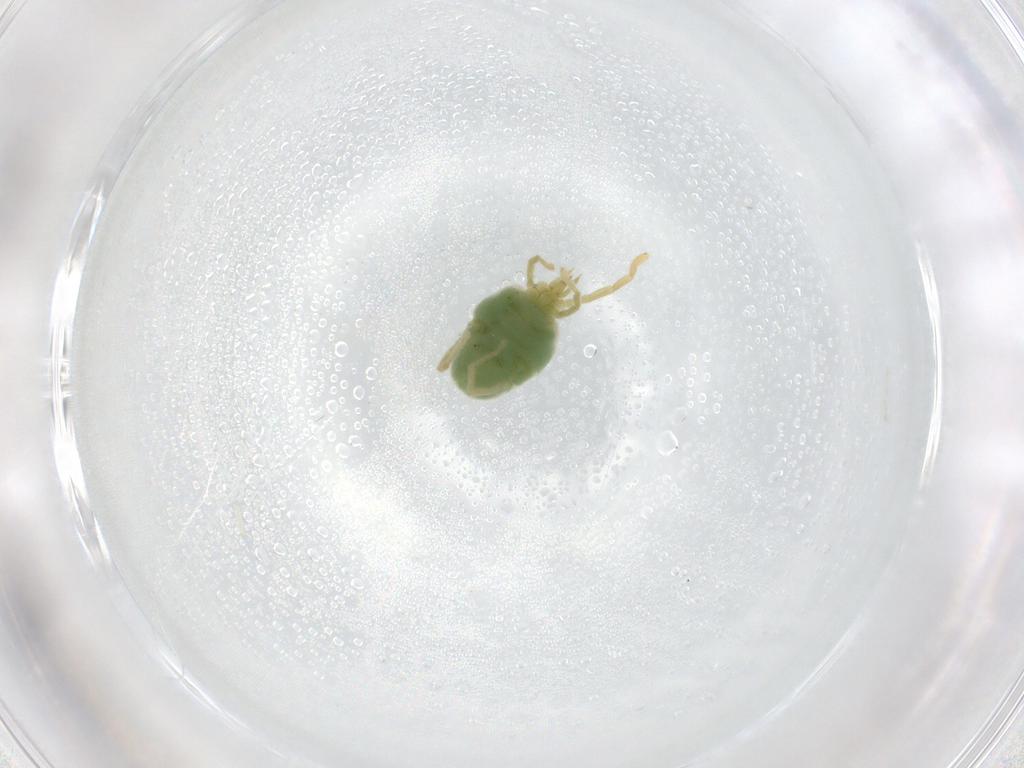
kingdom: Animalia
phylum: Arthropoda
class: Arachnida
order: Trombidiformes
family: Erythraeidae
